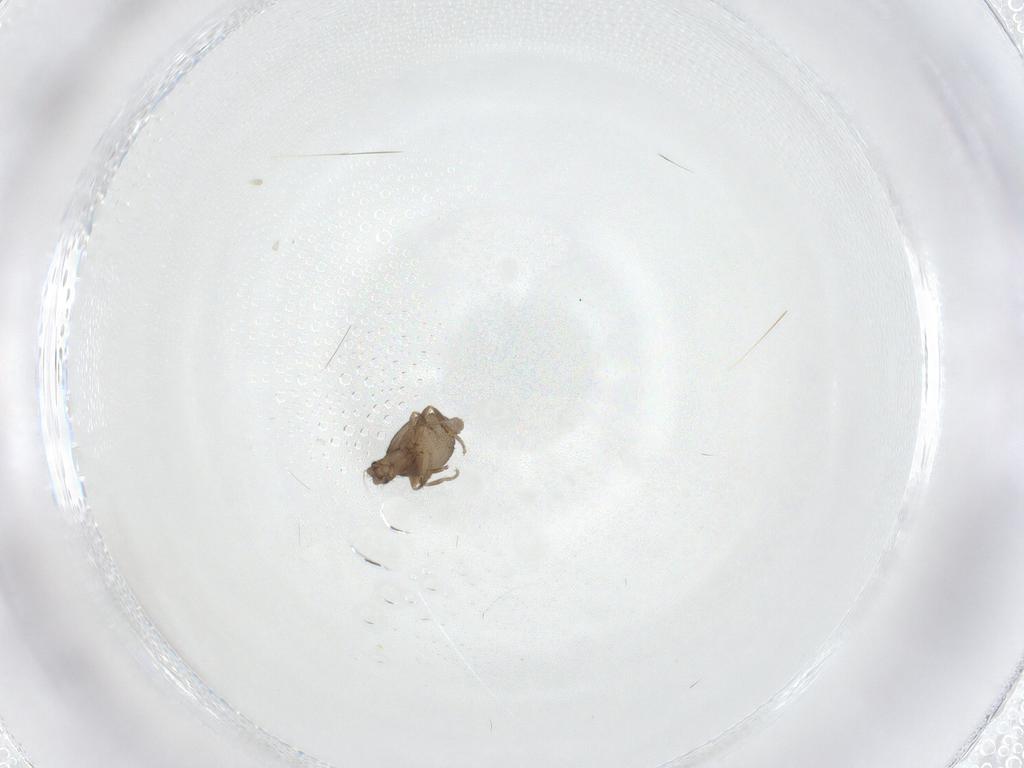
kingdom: Animalia
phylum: Arthropoda
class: Insecta
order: Diptera
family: Phoridae
